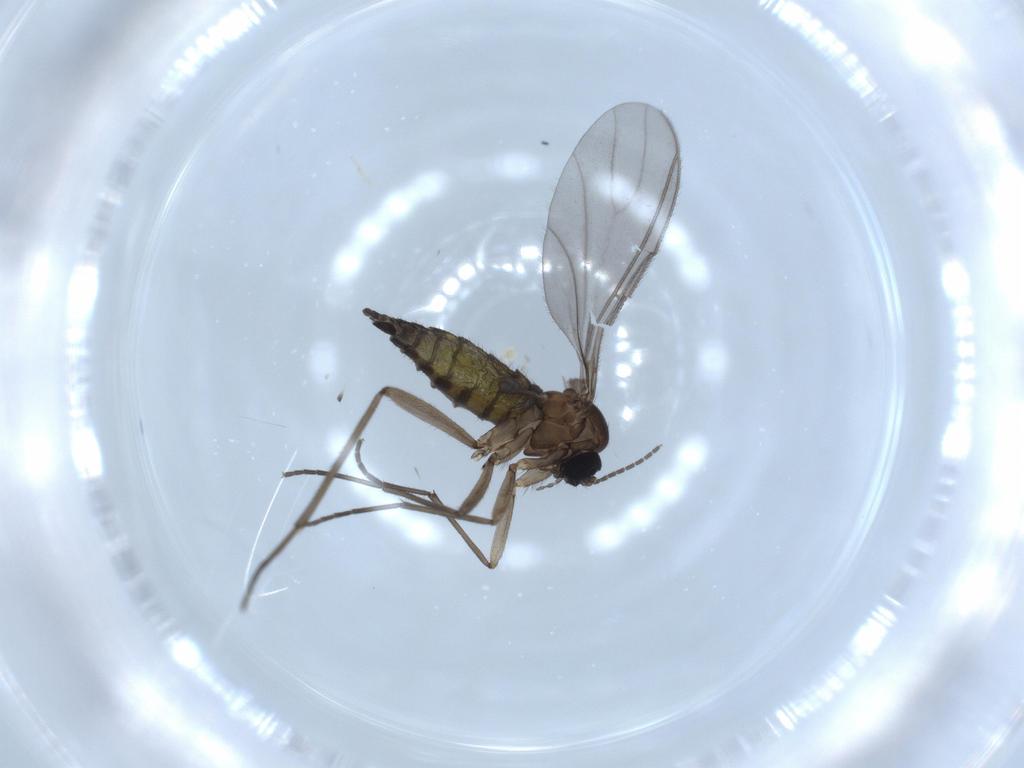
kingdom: Animalia
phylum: Arthropoda
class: Insecta
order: Diptera
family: Sciaridae
